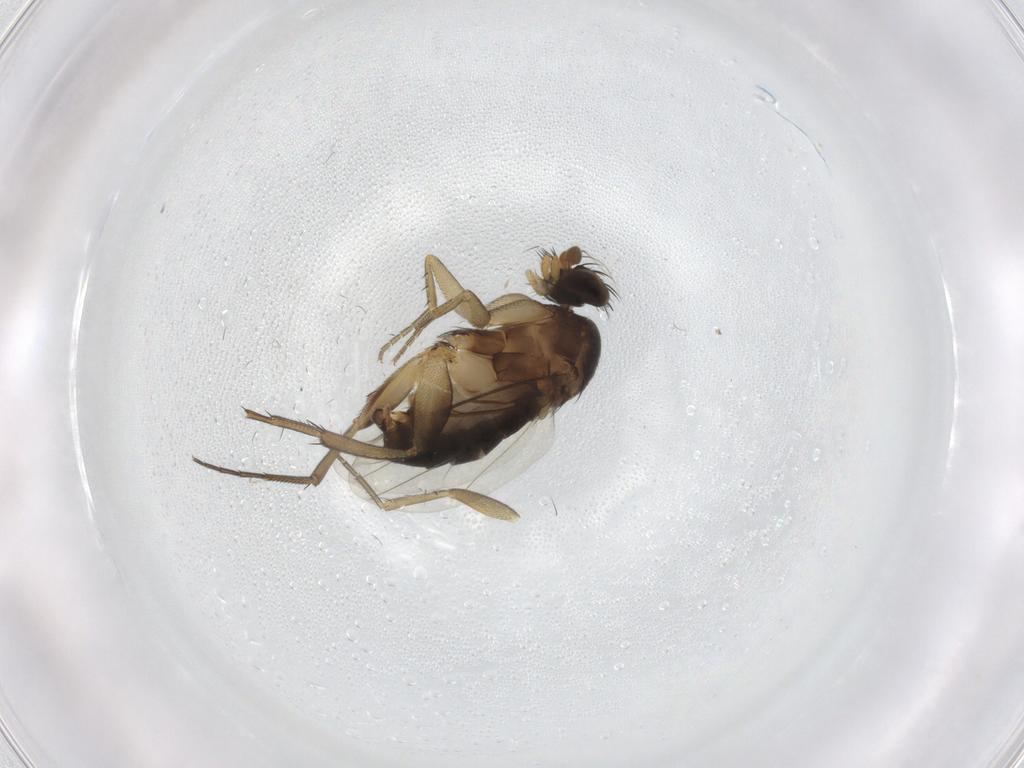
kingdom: Animalia
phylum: Arthropoda
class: Insecta
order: Diptera
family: Phoridae
